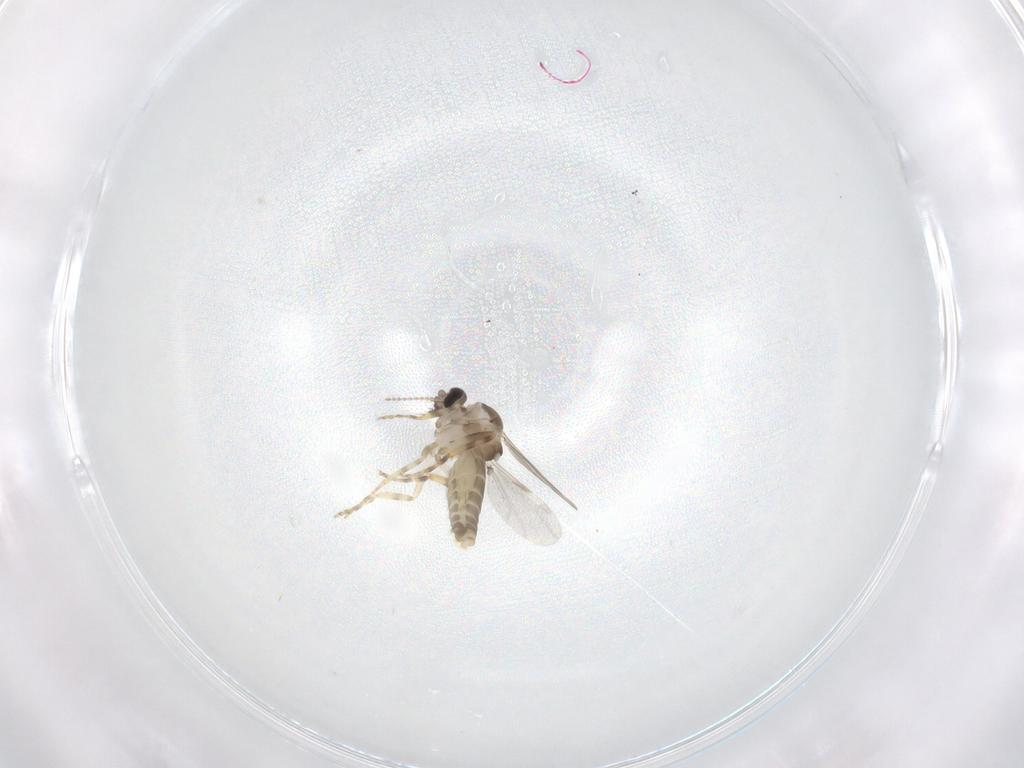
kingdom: Animalia
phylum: Arthropoda
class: Insecta
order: Diptera
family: Ceratopogonidae
